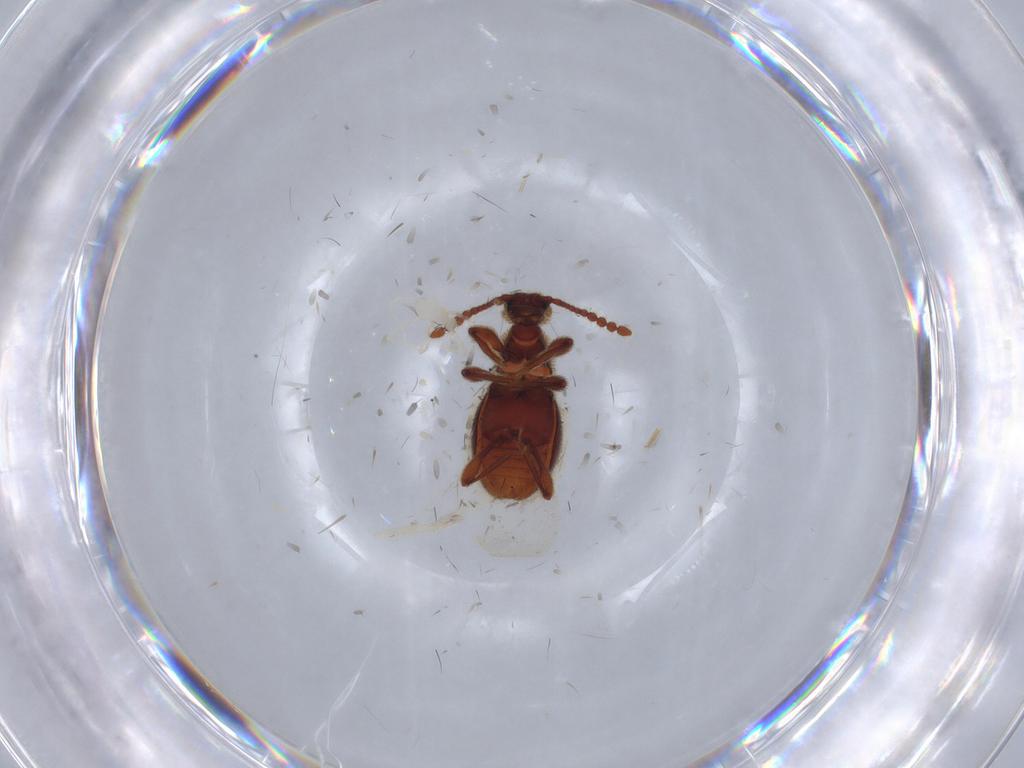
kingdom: Animalia
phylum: Arthropoda
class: Insecta
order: Coleoptera
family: Staphylinidae
